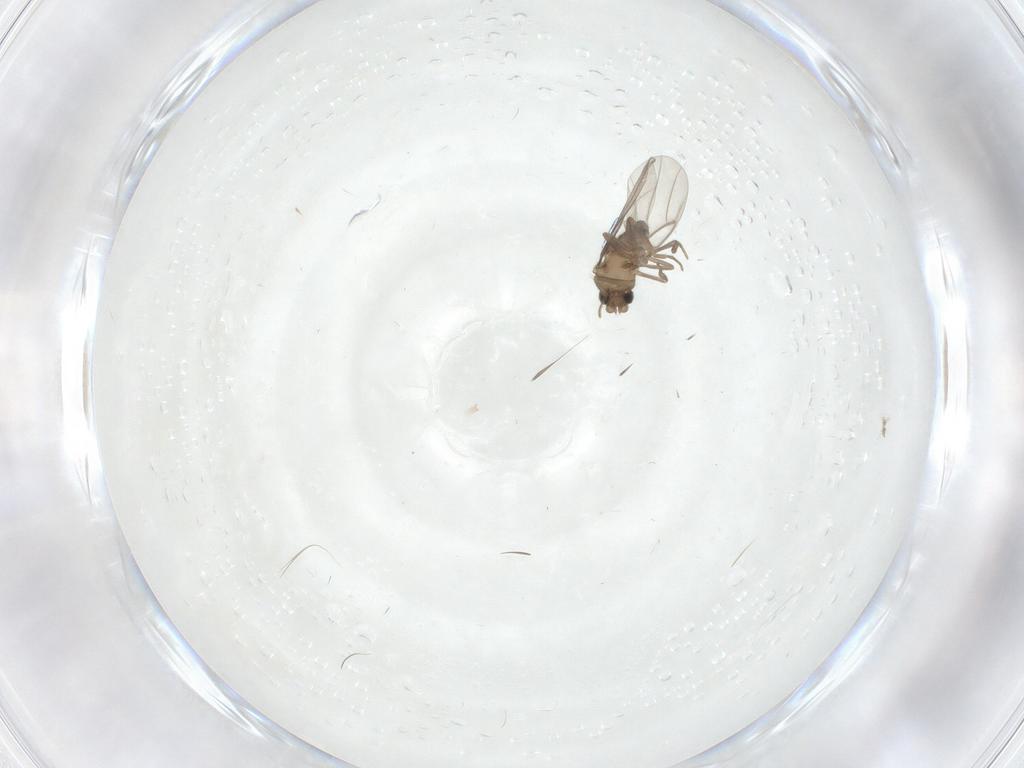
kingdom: Animalia
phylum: Arthropoda
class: Insecta
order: Diptera
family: Cecidomyiidae
